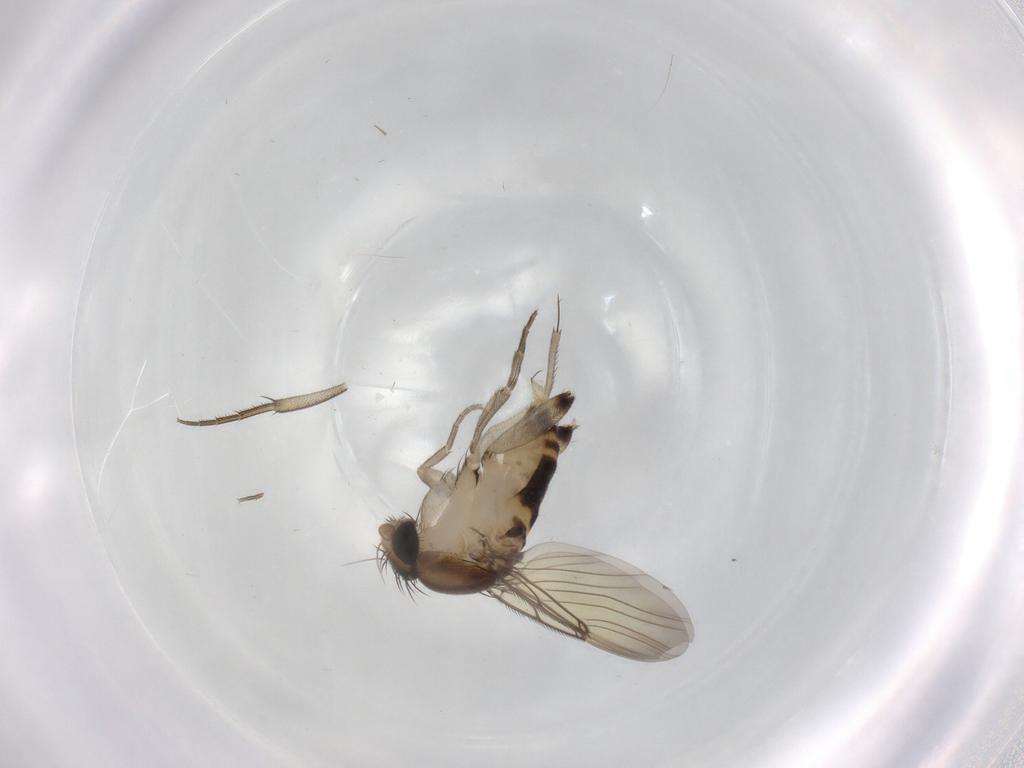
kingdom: Animalia
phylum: Arthropoda
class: Insecta
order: Diptera
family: Phoridae
